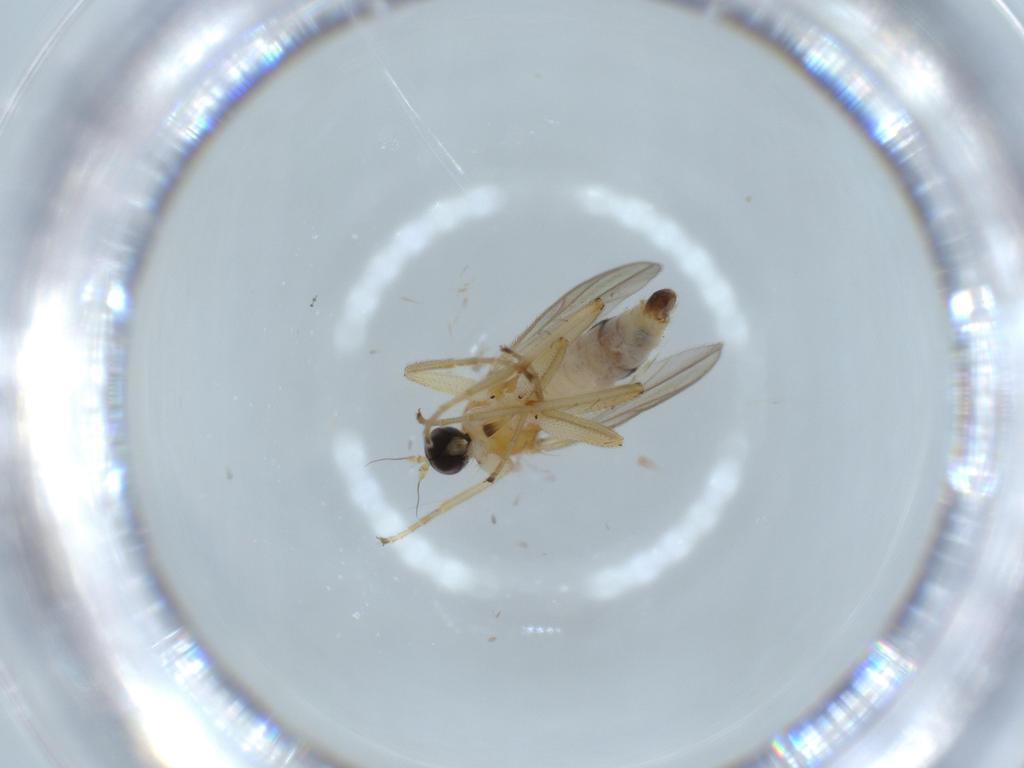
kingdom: Animalia
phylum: Arthropoda
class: Insecta
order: Diptera
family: Hybotidae
